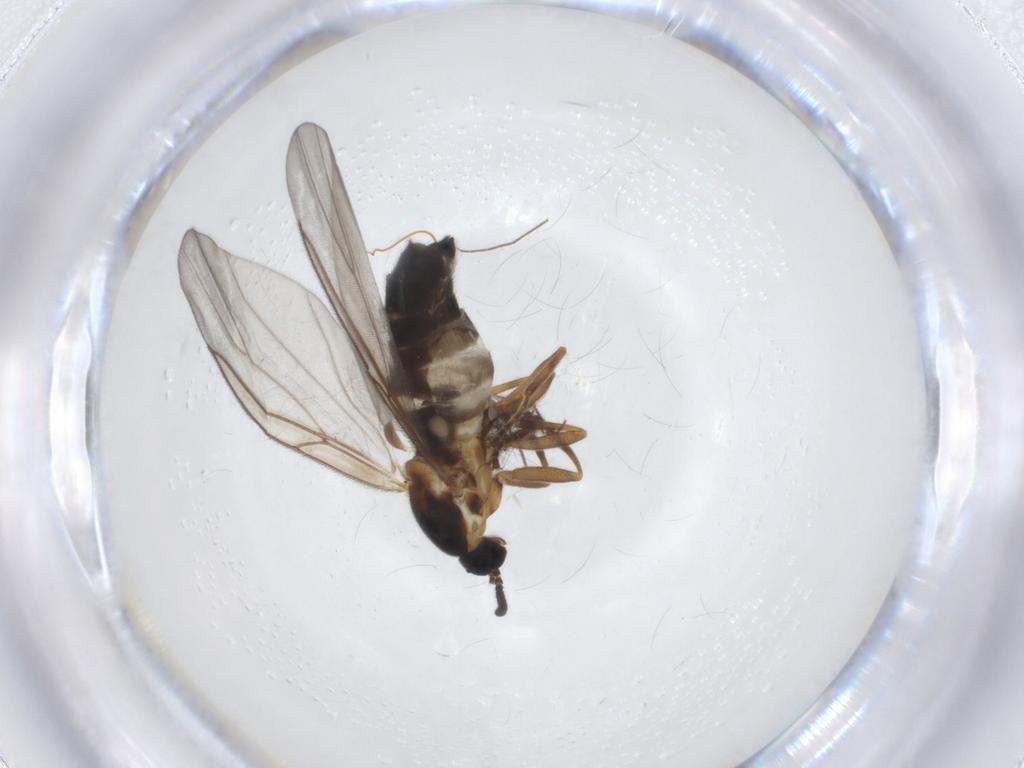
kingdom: Animalia
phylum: Arthropoda
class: Insecta
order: Diptera
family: Scatopsidae
